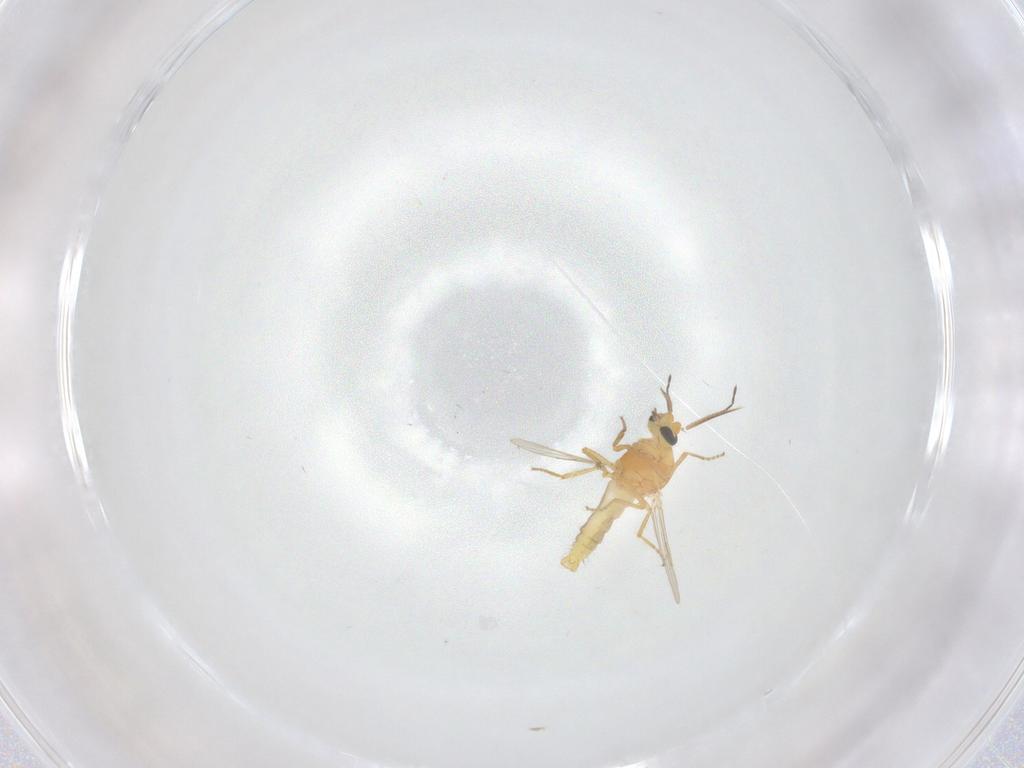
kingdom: Animalia
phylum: Arthropoda
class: Insecta
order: Diptera
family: Ceratopogonidae
